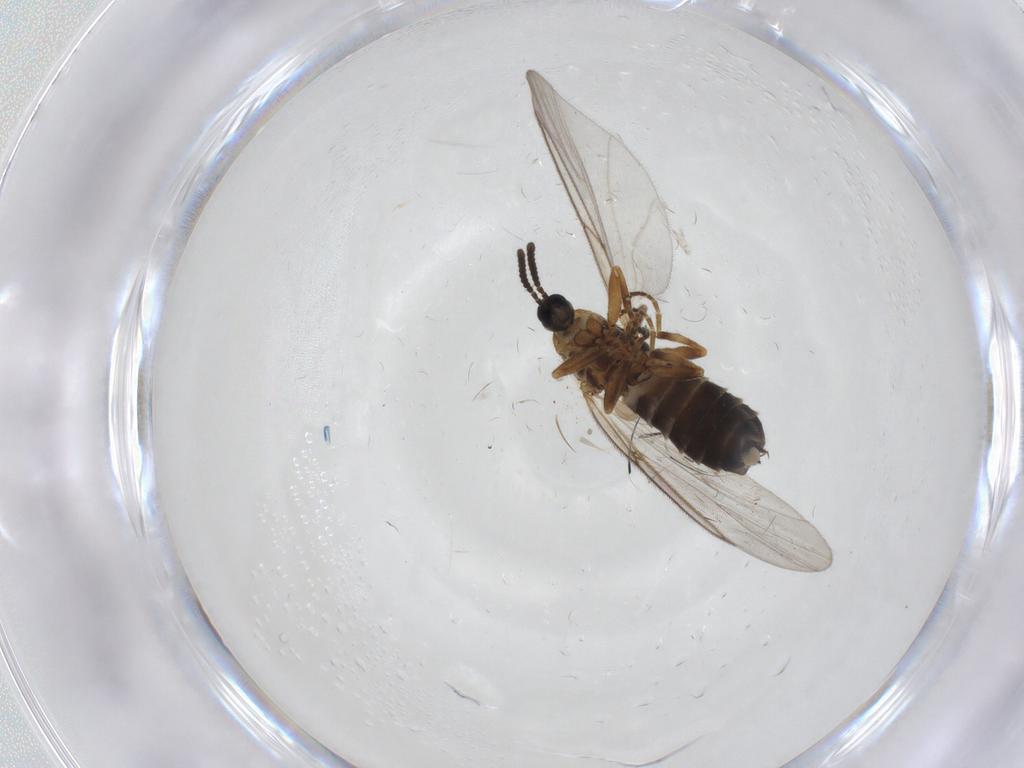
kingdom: Animalia
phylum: Arthropoda
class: Insecta
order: Diptera
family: Scatopsidae
